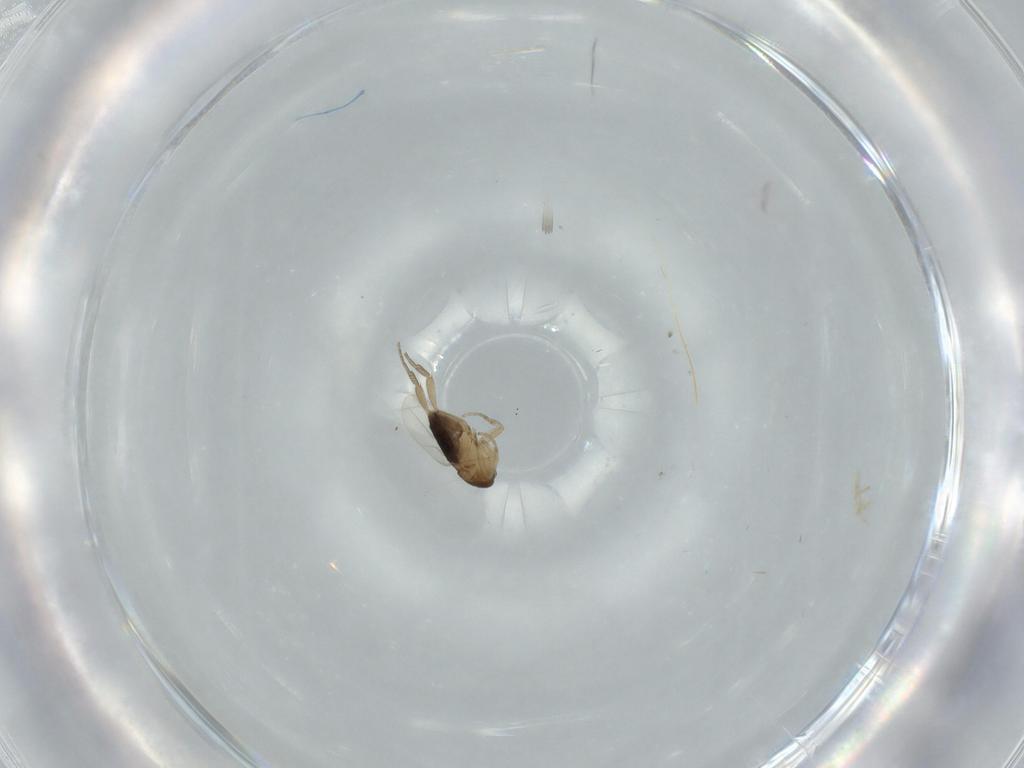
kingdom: Animalia
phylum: Arthropoda
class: Insecta
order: Diptera
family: Phoridae
